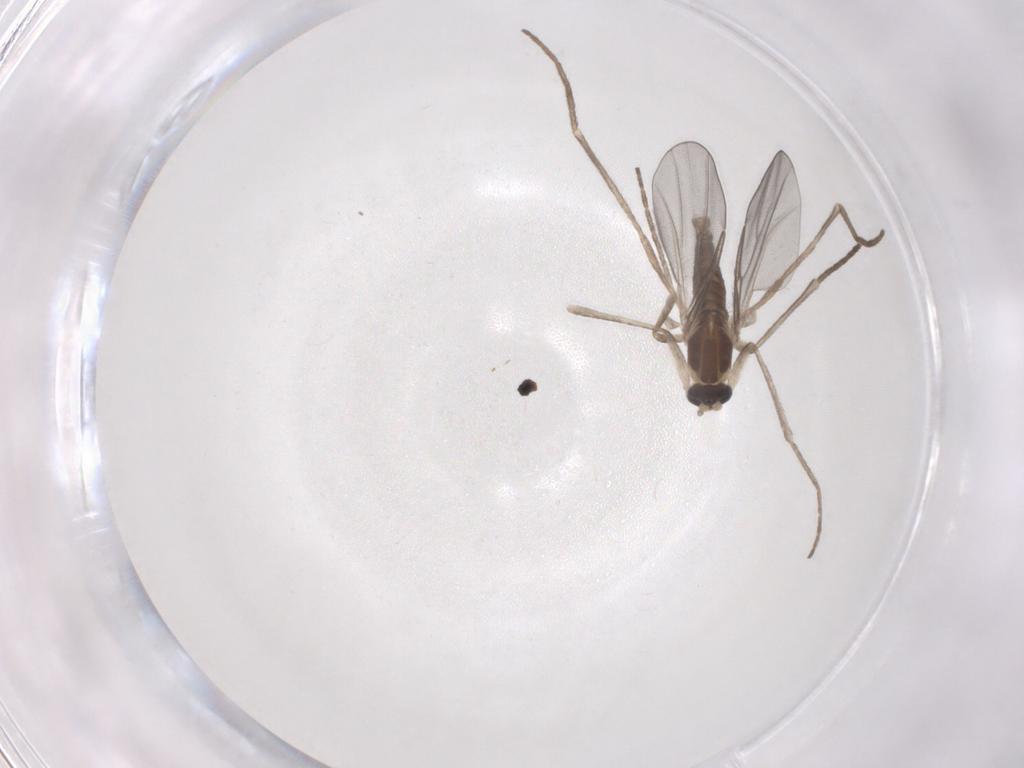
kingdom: Animalia
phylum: Arthropoda
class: Insecta
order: Diptera
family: Cecidomyiidae
